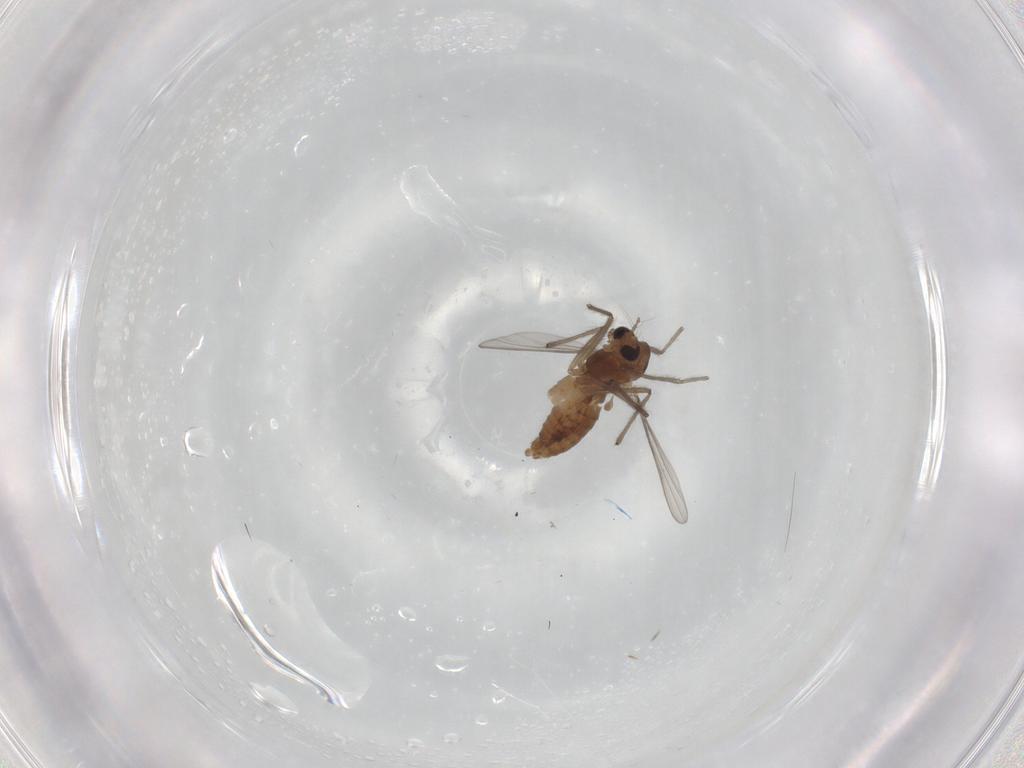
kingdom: Animalia
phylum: Arthropoda
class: Insecta
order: Diptera
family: Chironomidae
